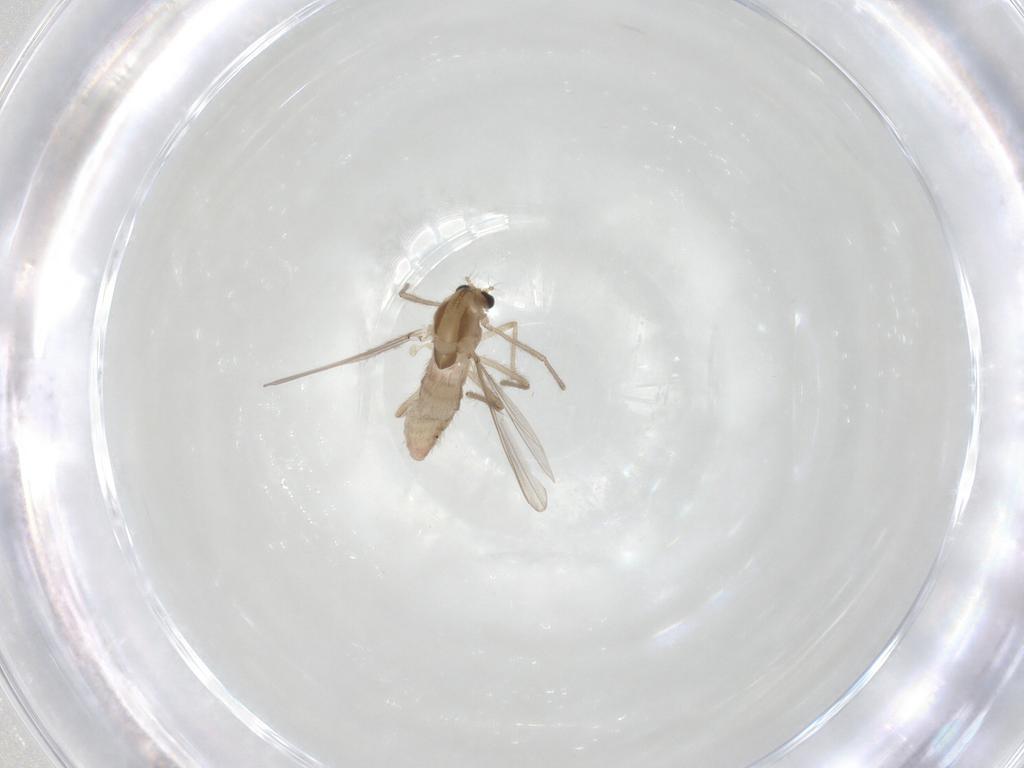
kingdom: Animalia
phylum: Arthropoda
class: Insecta
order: Diptera
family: Chironomidae
